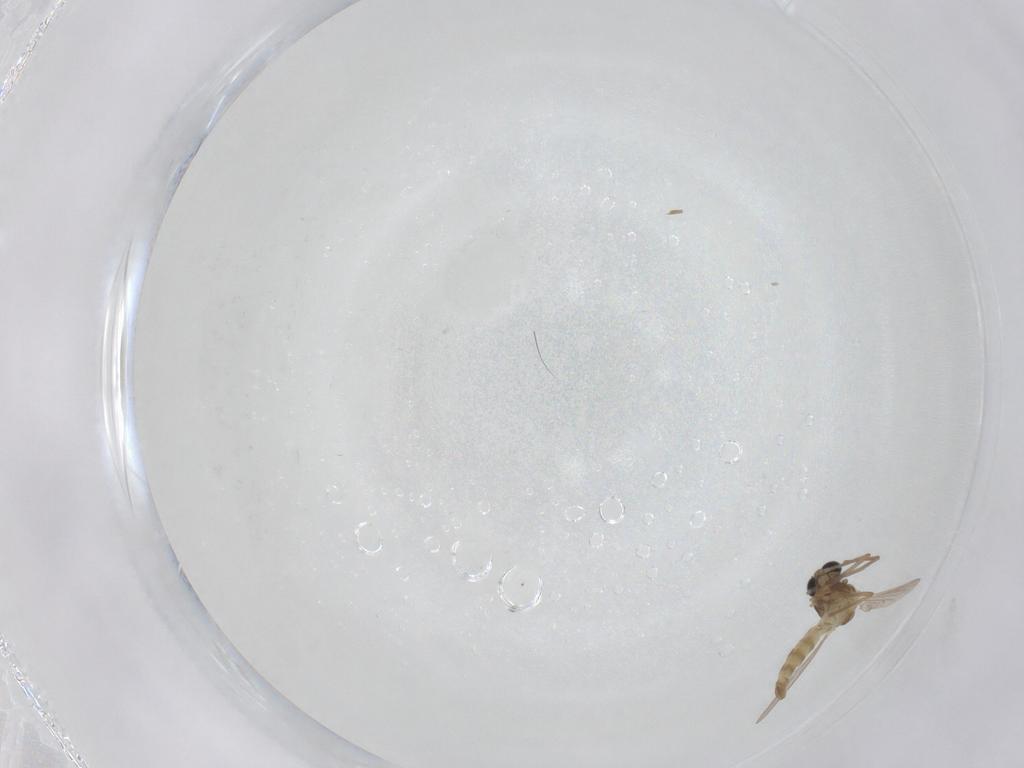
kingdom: Animalia
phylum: Arthropoda
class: Insecta
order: Diptera
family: Chironomidae
